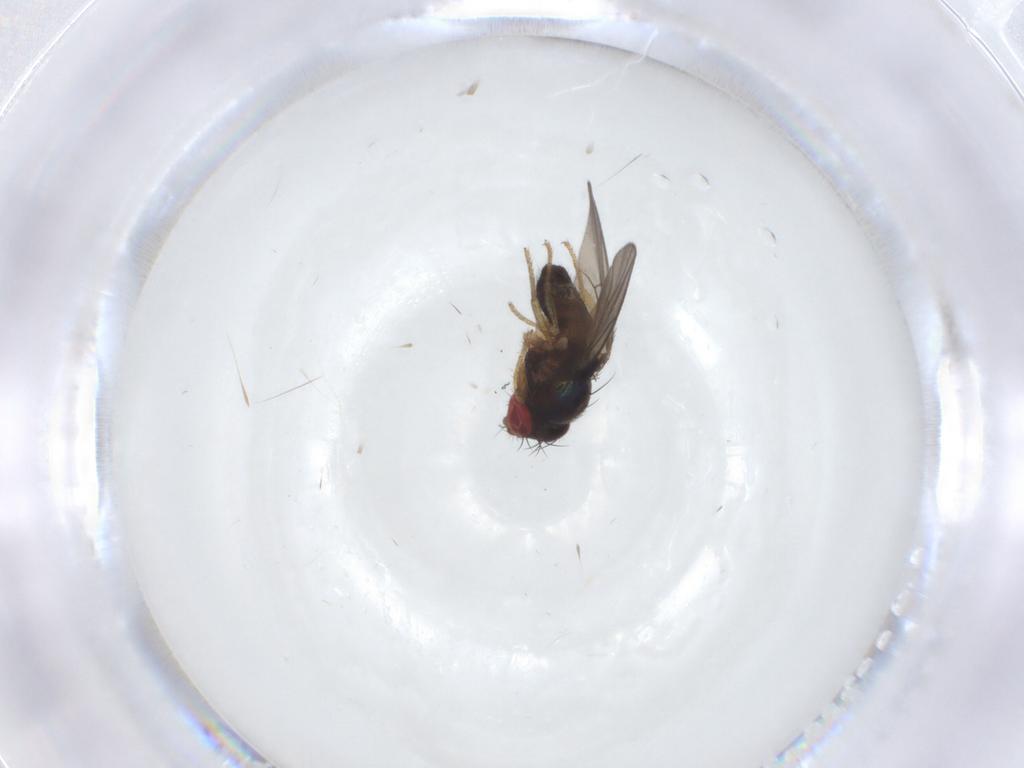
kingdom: Animalia
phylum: Arthropoda
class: Insecta
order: Diptera
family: Drosophilidae
